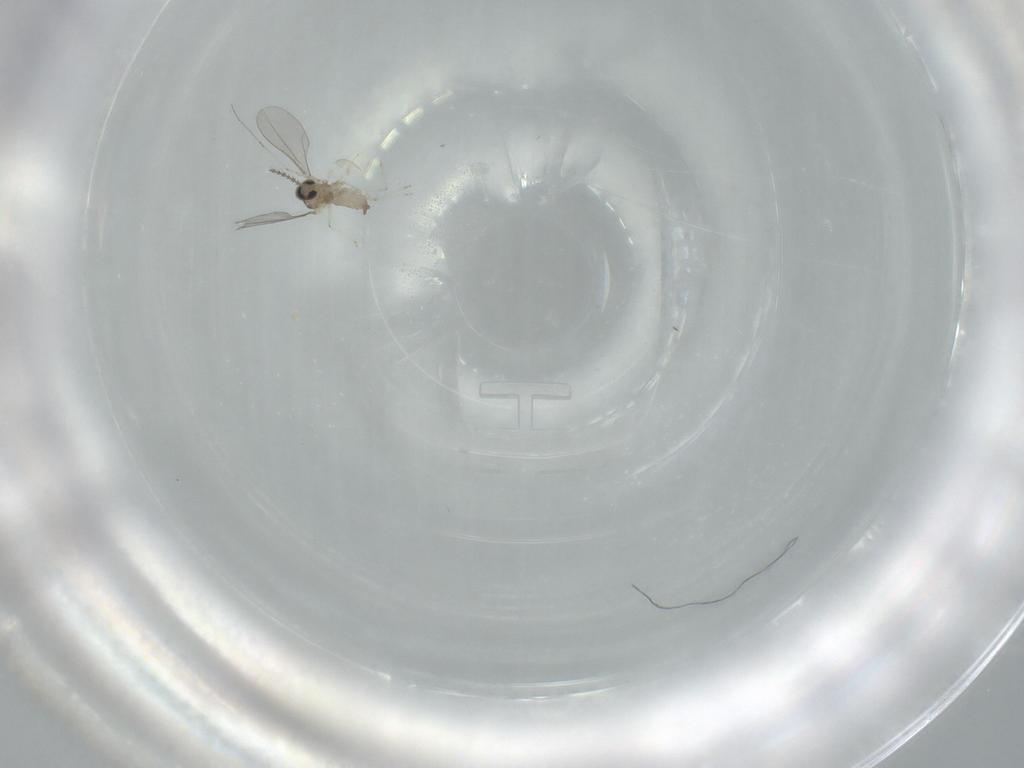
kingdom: Animalia
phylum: Arthropoda
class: Insecta
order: Diptera
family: Cecidomyiidae
